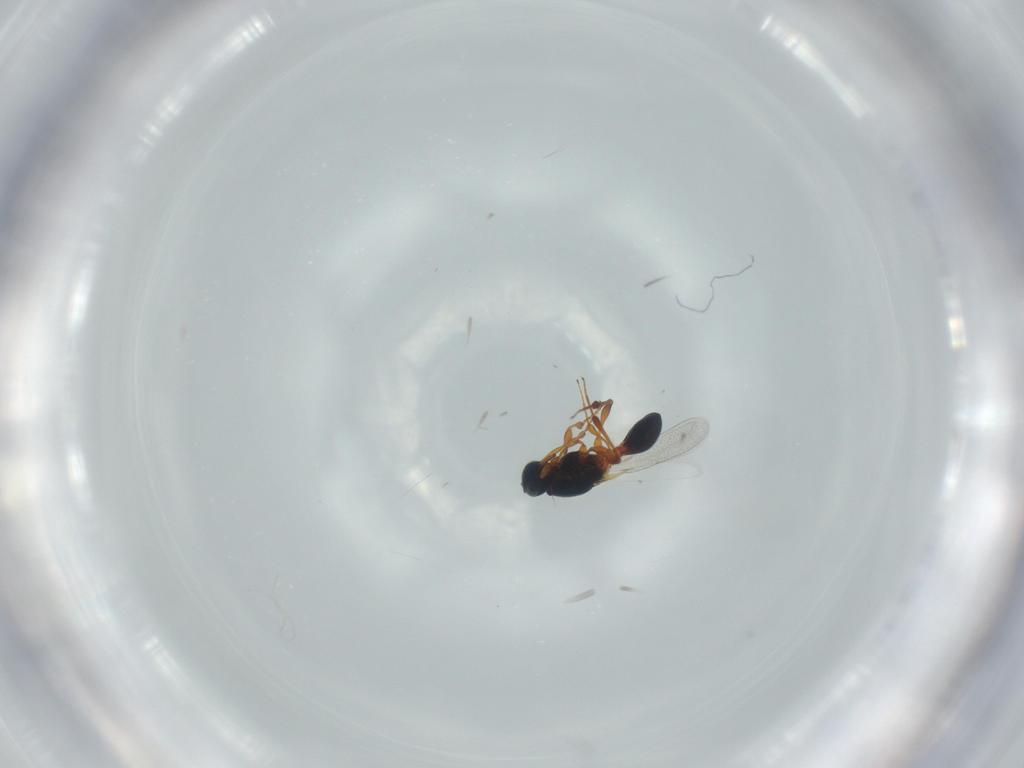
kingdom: Animalia
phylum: Arthropoda
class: Insecta
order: Hymenoptera
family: Platygastridae
